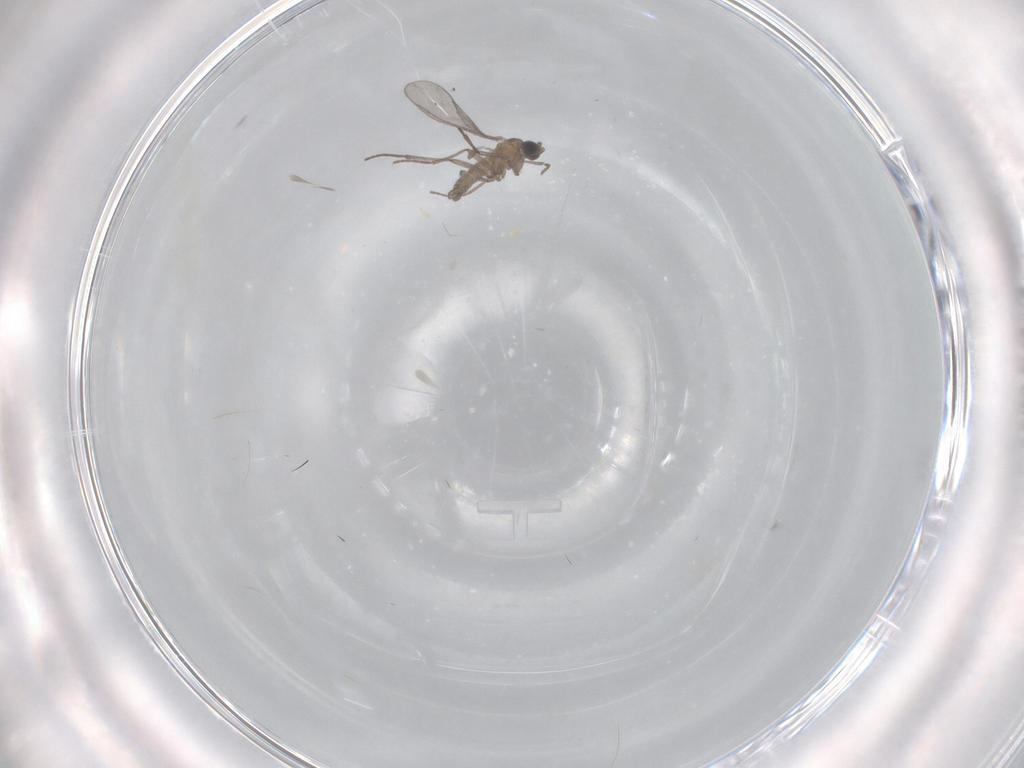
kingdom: Animalia
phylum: Arthropoda
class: Insecta
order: Diptera
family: Sciaridae
